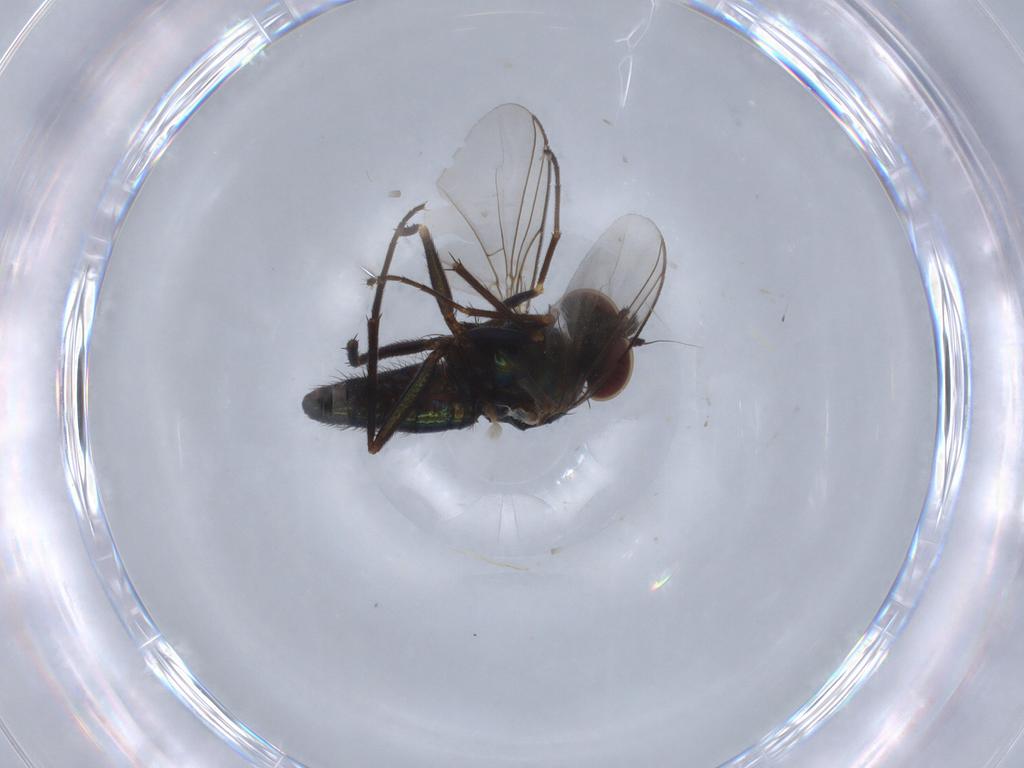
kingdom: Animalia
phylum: Arthropoda
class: Insecta
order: Diptera
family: Dolichopodidae
